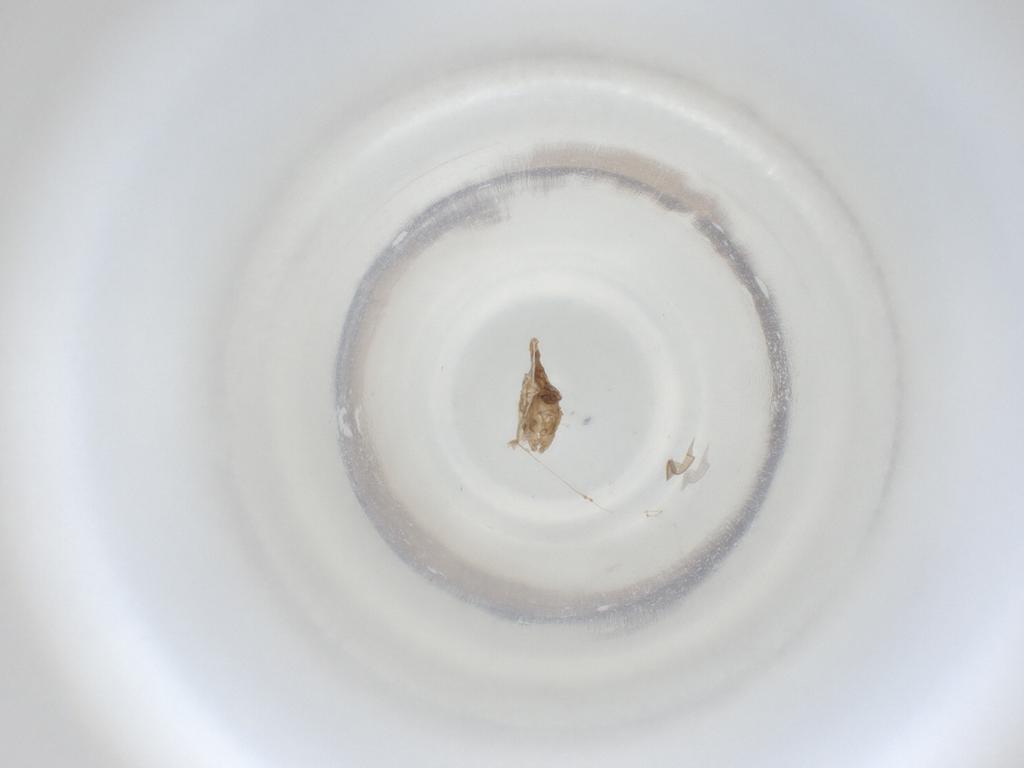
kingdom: Animalia
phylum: Arthropoda
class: Insecta
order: Diptera
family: Cecidomyiidae
